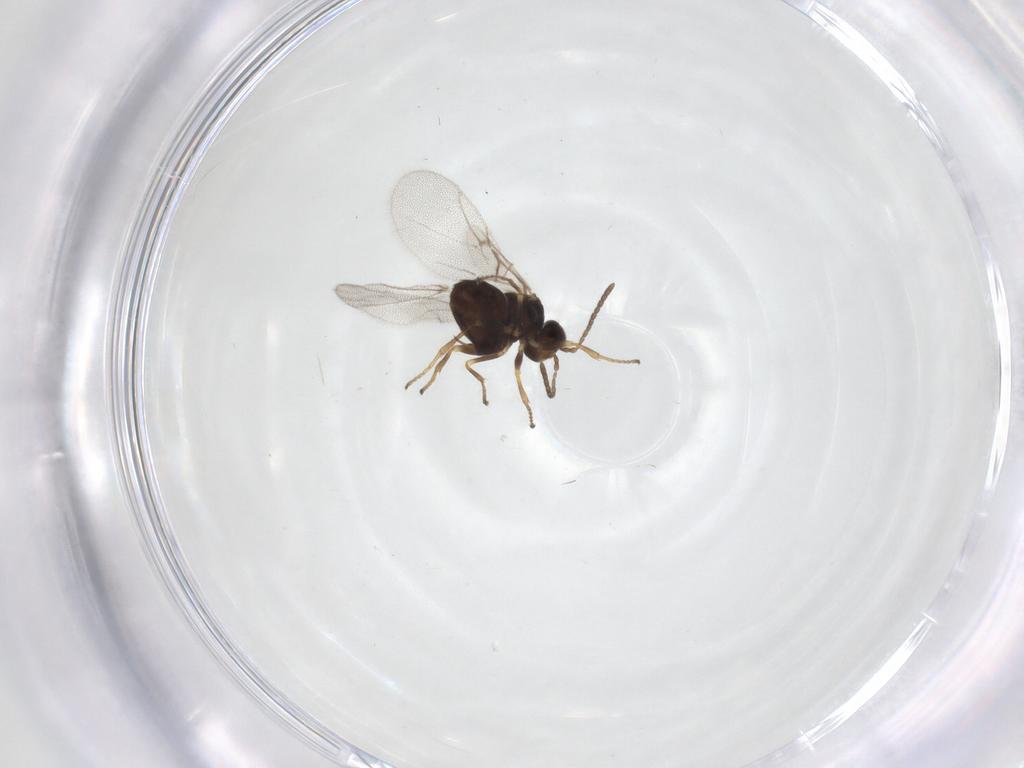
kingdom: Animalia
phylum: Arthropoda
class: Insecta
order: Hymenoptera
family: Cynipidae
